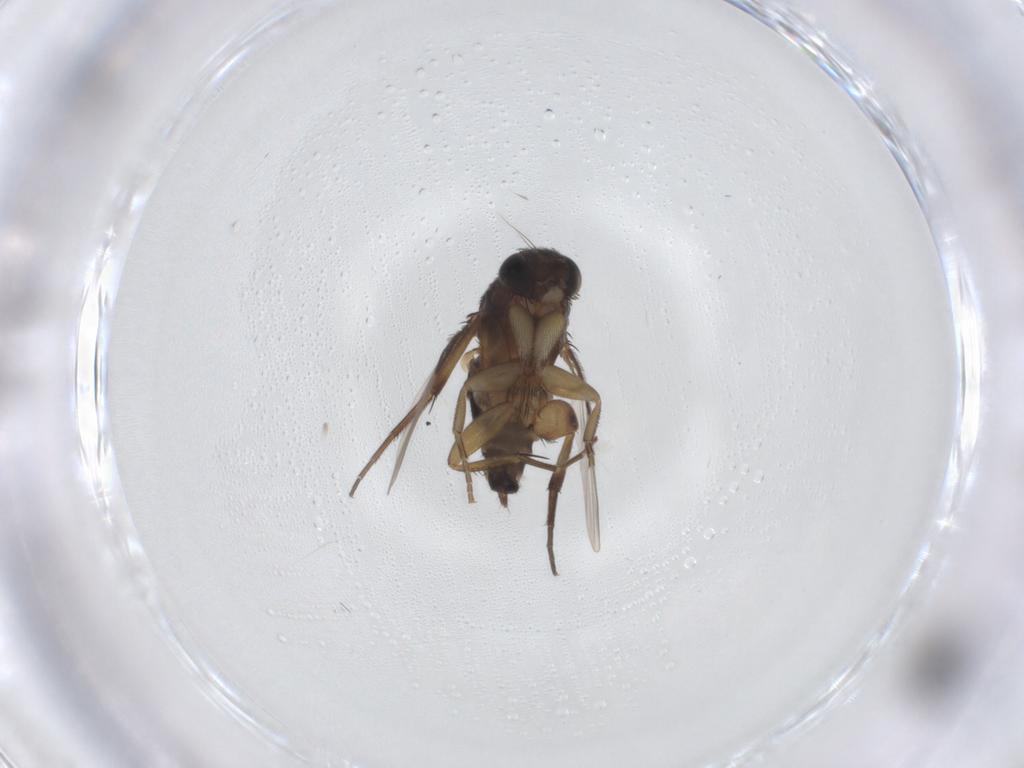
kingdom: Animalia
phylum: Arthropoda
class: Insecta
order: Diptera
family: Phoridae
